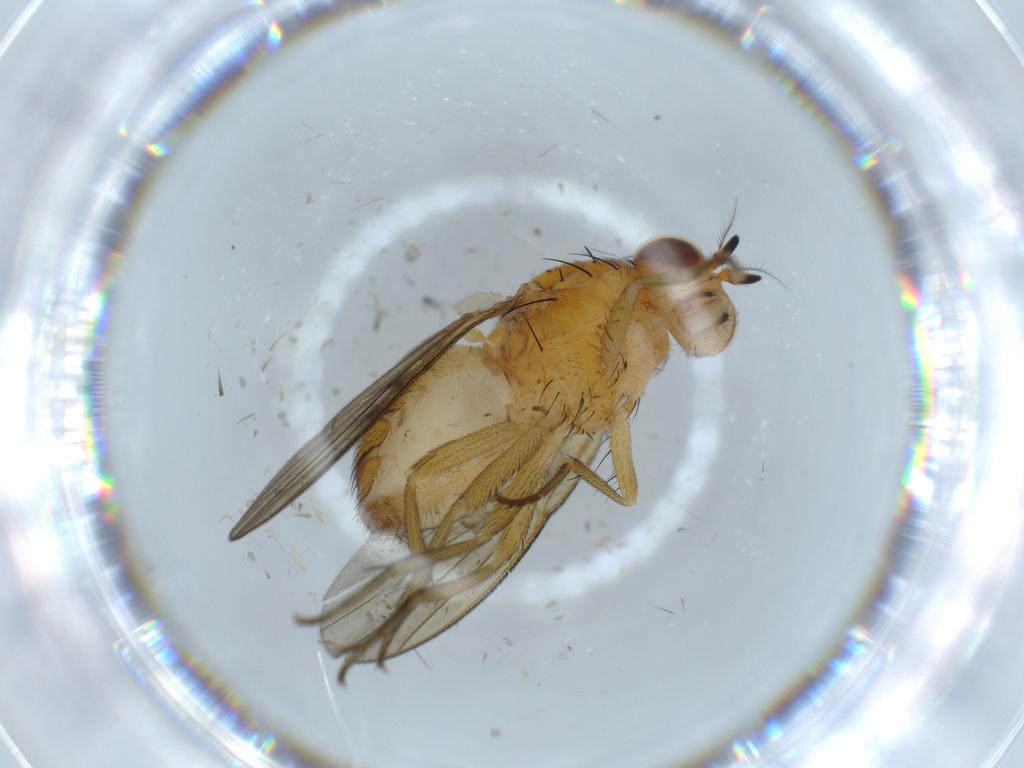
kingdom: Animalia
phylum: Arthropoda
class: Insecta
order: Diptera
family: Lauxaniidae
